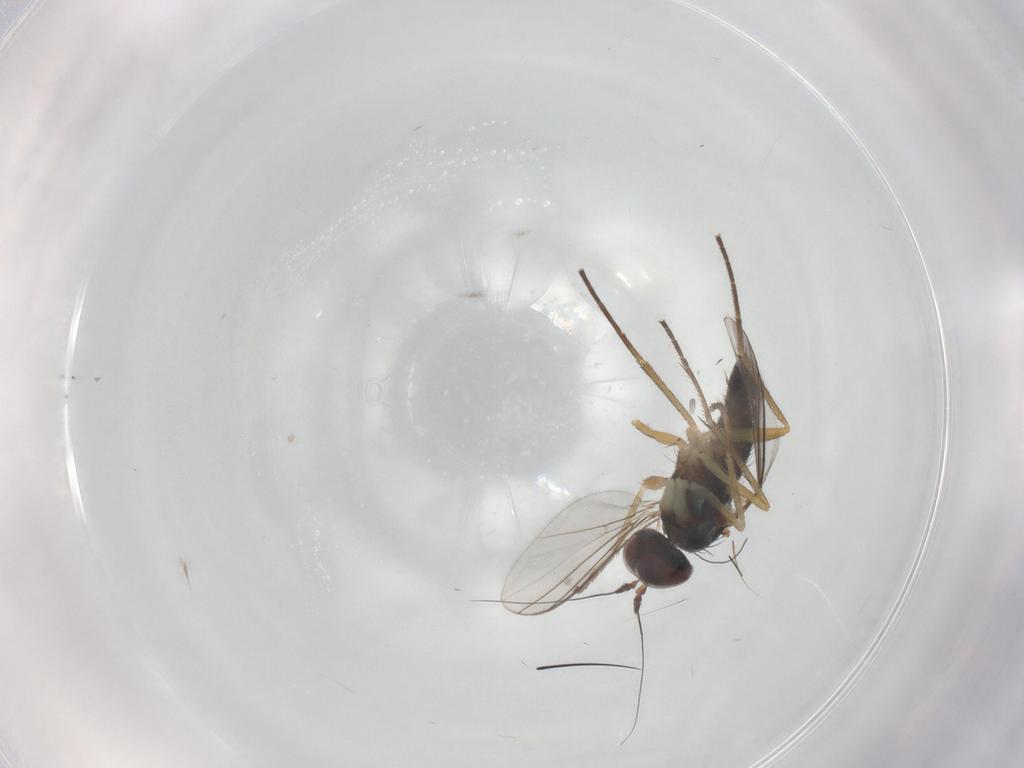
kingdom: Animalia
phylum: Arthropoda
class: Insecta
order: Diptera
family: Dolichopodidae
